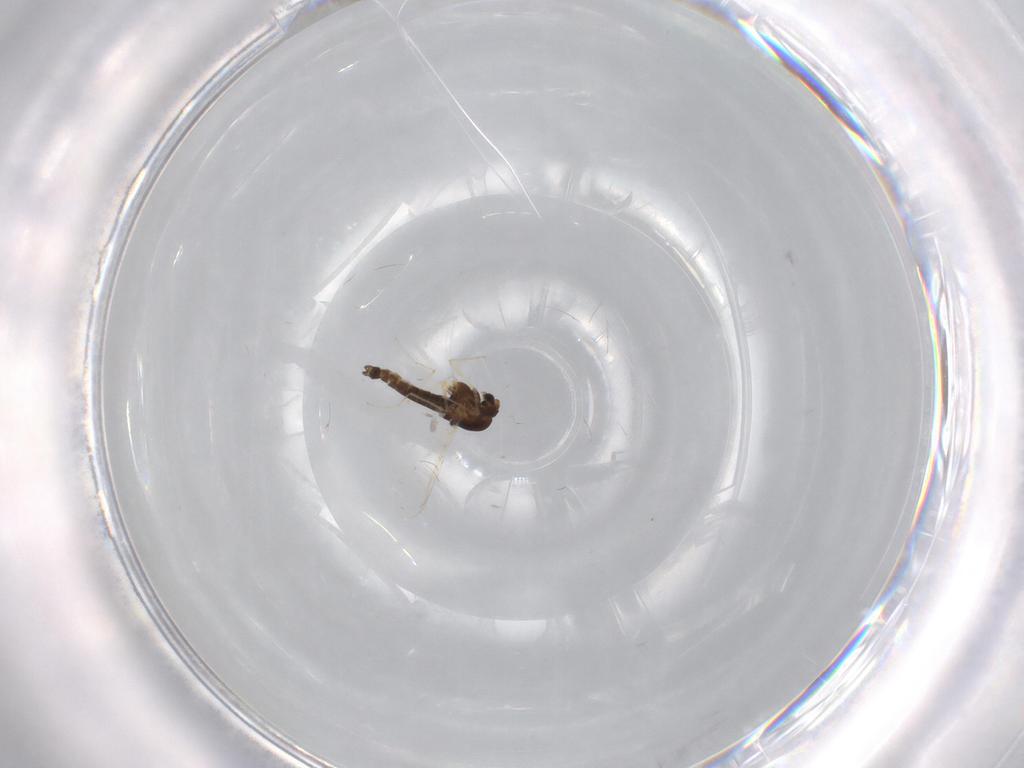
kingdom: Animalia
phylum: Arthropoda
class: Insecta
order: Diptera
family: Chironomidae
